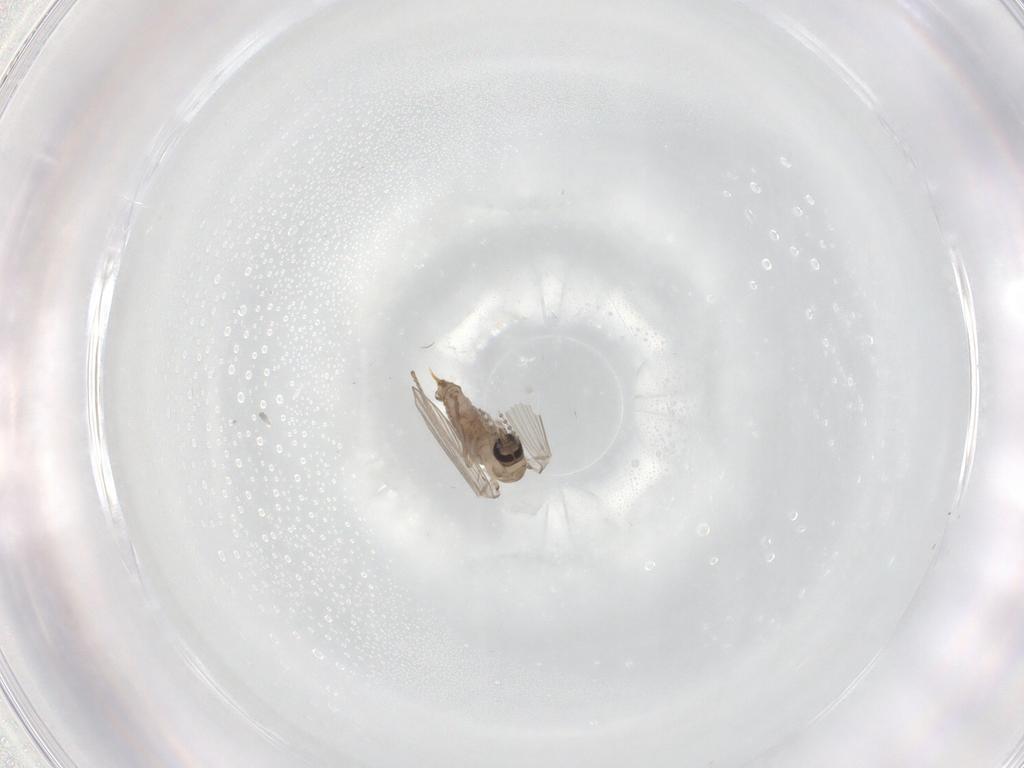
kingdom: Animalia
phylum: Arthropoda
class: Insecta
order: Diptera
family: Psychodidae
